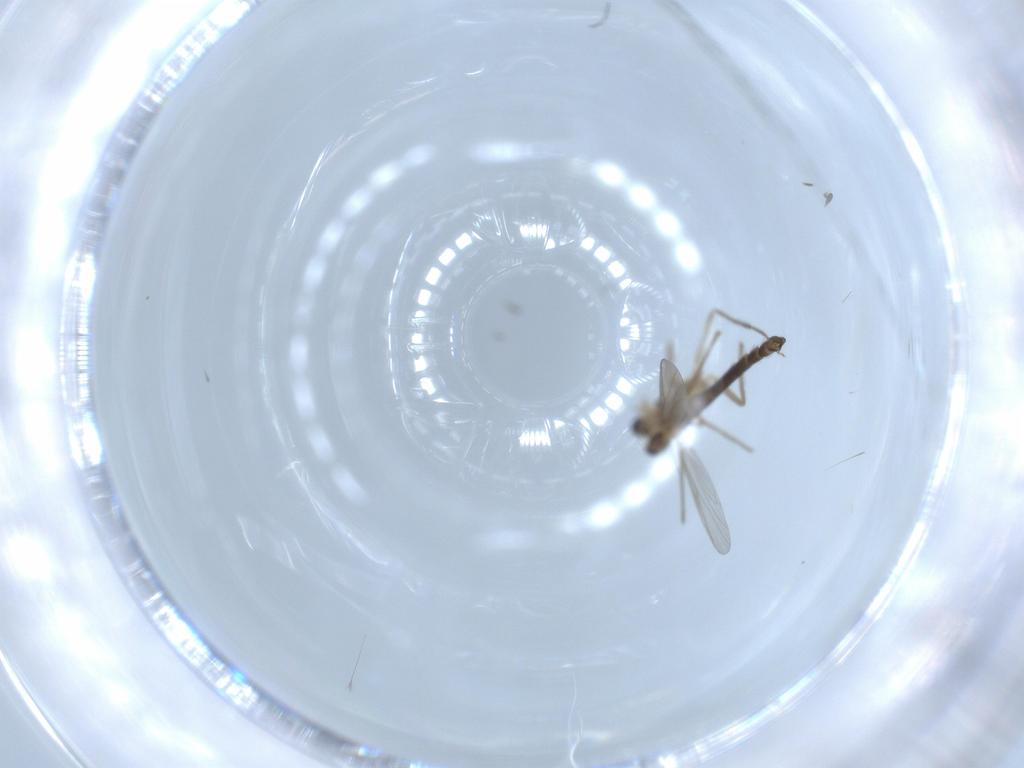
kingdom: Animalia
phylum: Arthropoda
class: Insecta
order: Diptera
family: Chironomidae
